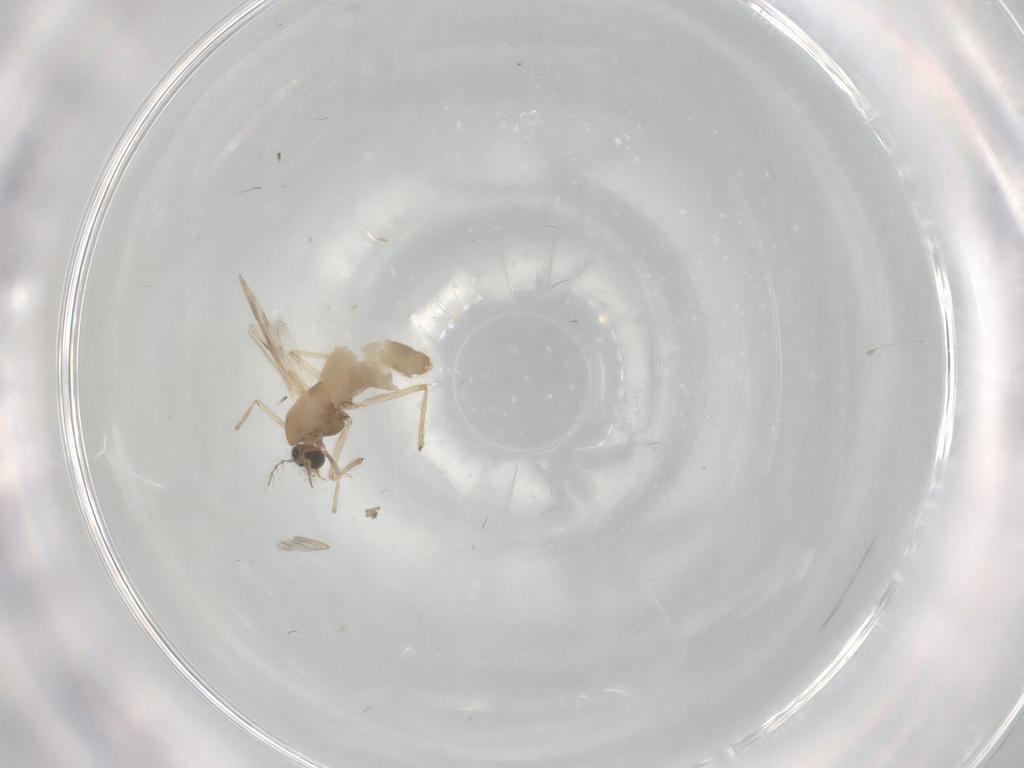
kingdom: Animalia
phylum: Arthropoda
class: Insecta
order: Diptera
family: Chironomidae
